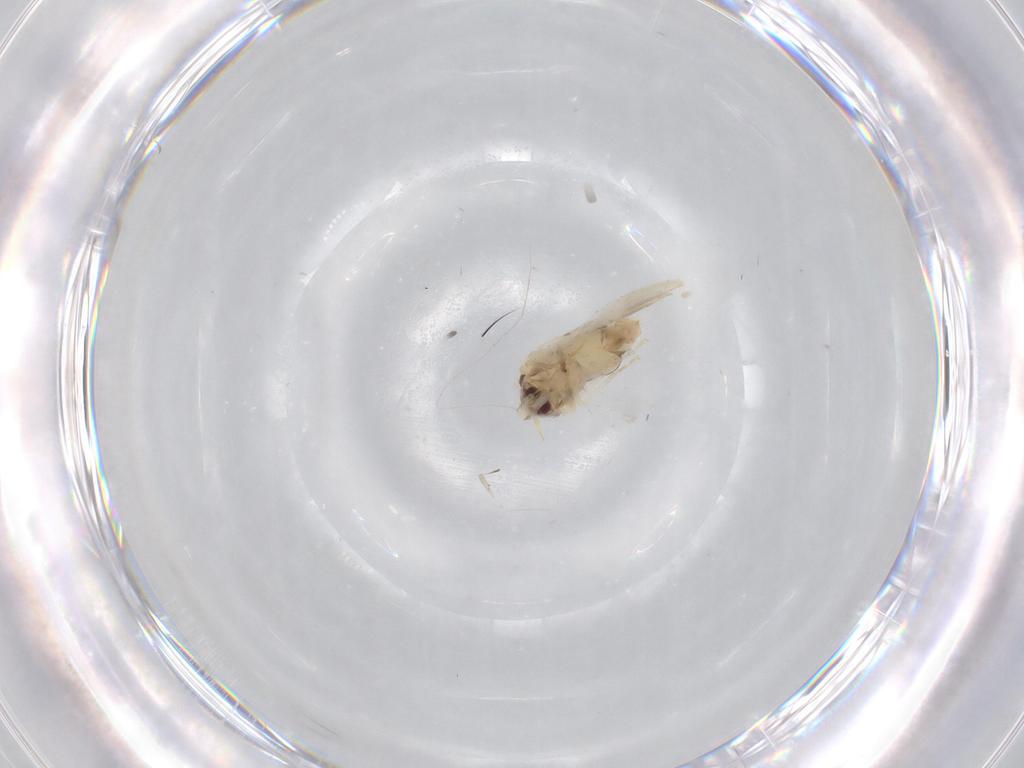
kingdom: Animalia
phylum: Arthropoda
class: Insecta
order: Hemiptera
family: Aleyrodidae
